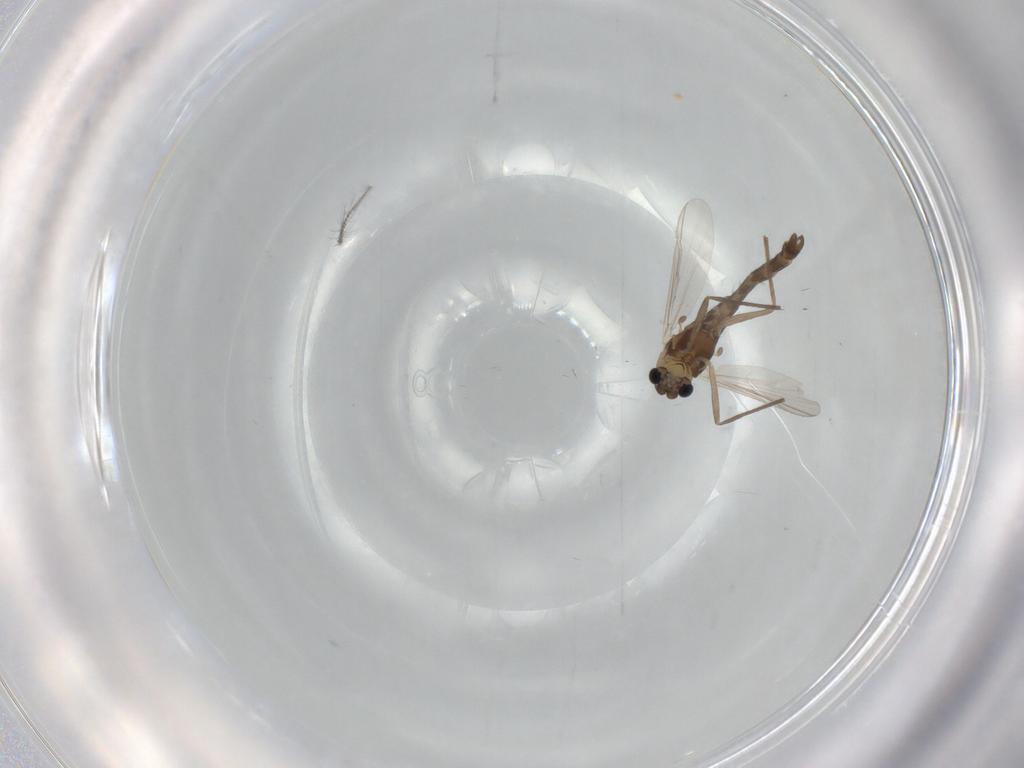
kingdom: Animalia
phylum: Arthropoda
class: Insecta
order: Diptera
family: Chironomidae
